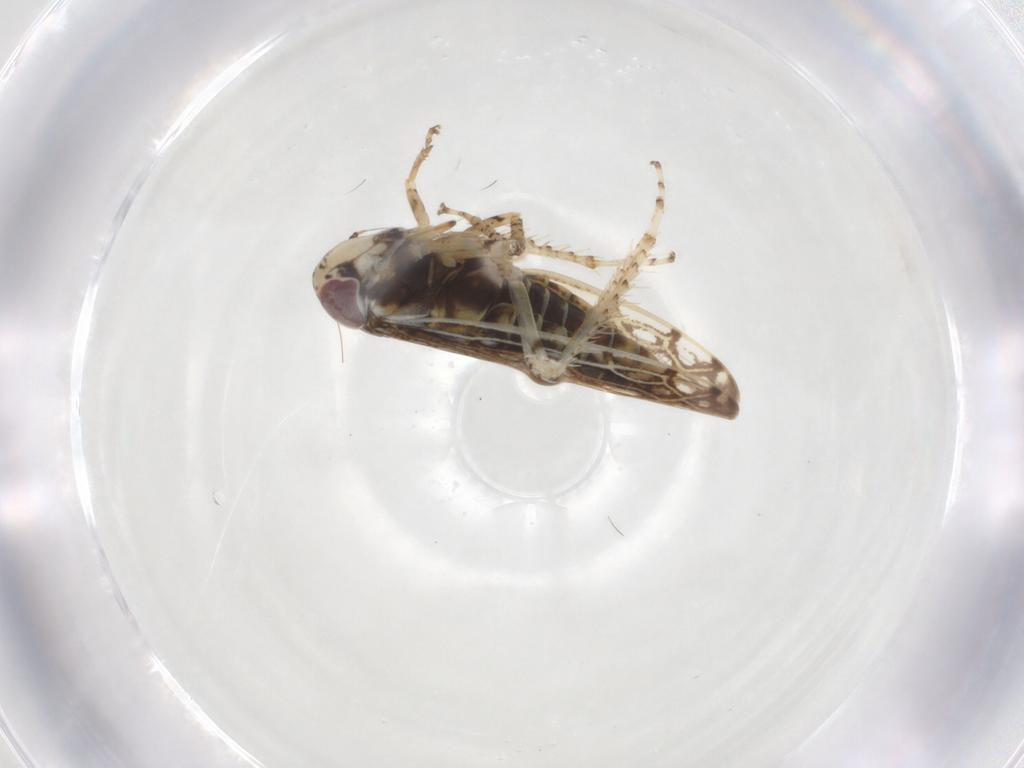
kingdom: Animalia
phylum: Arthropoda
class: Insecta
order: Hemiptera
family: Cicadellidae
